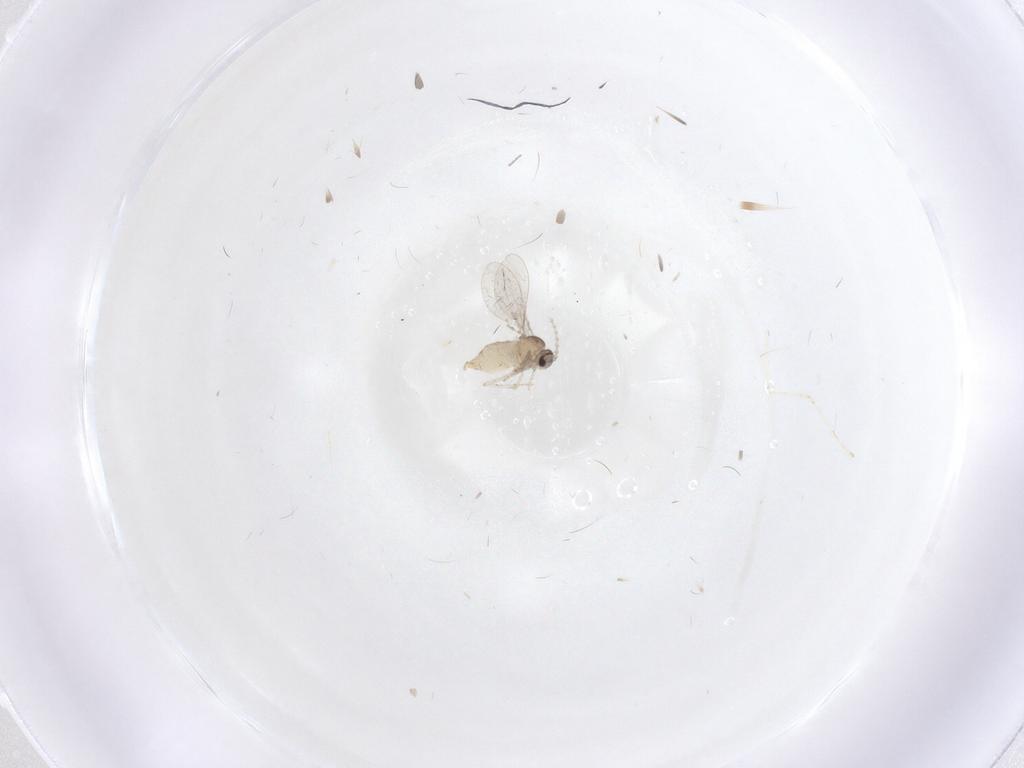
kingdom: Animalia
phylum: Arthropoda
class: Insecta
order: Diptera
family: Cecidomyiidae
